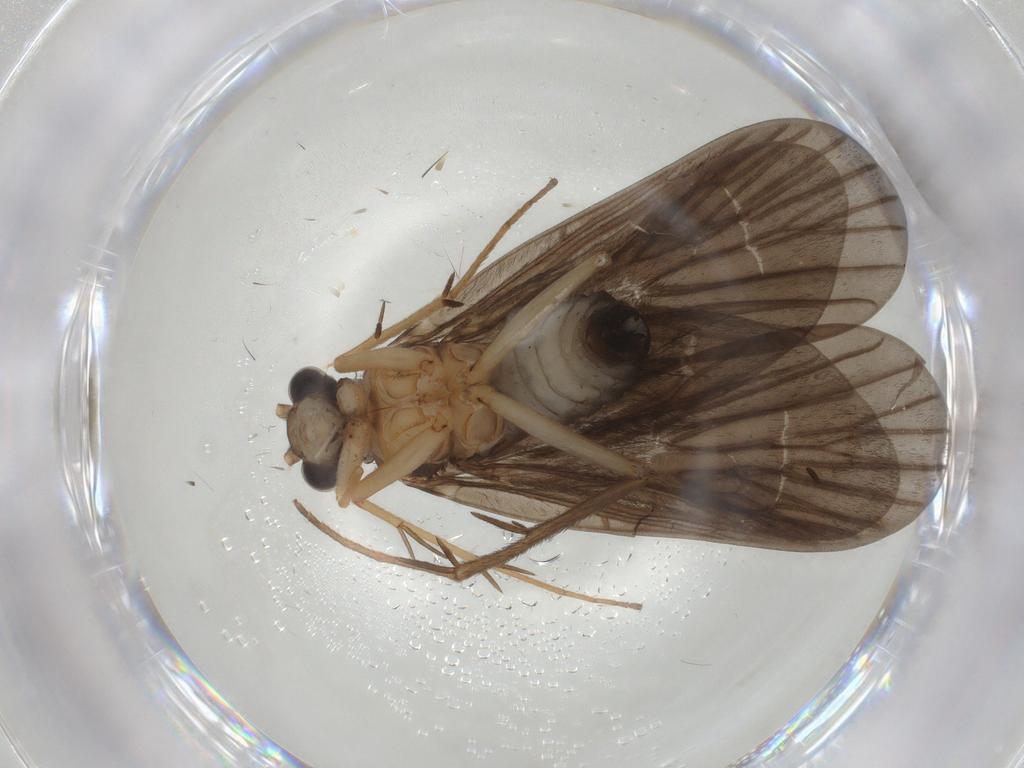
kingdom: Animalia
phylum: Arthropoda
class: Insecta
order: Trichoptera
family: Philopotamidae
